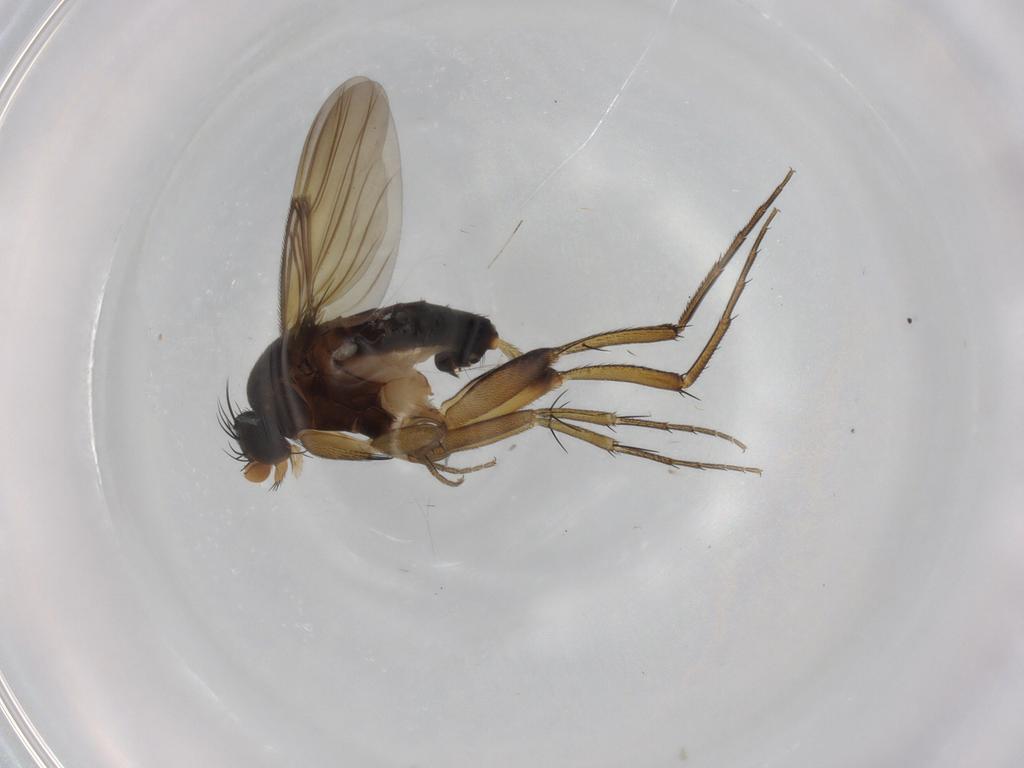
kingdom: Animalia
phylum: Arthropoda
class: Insecta
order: Diptera
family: Phoridae
